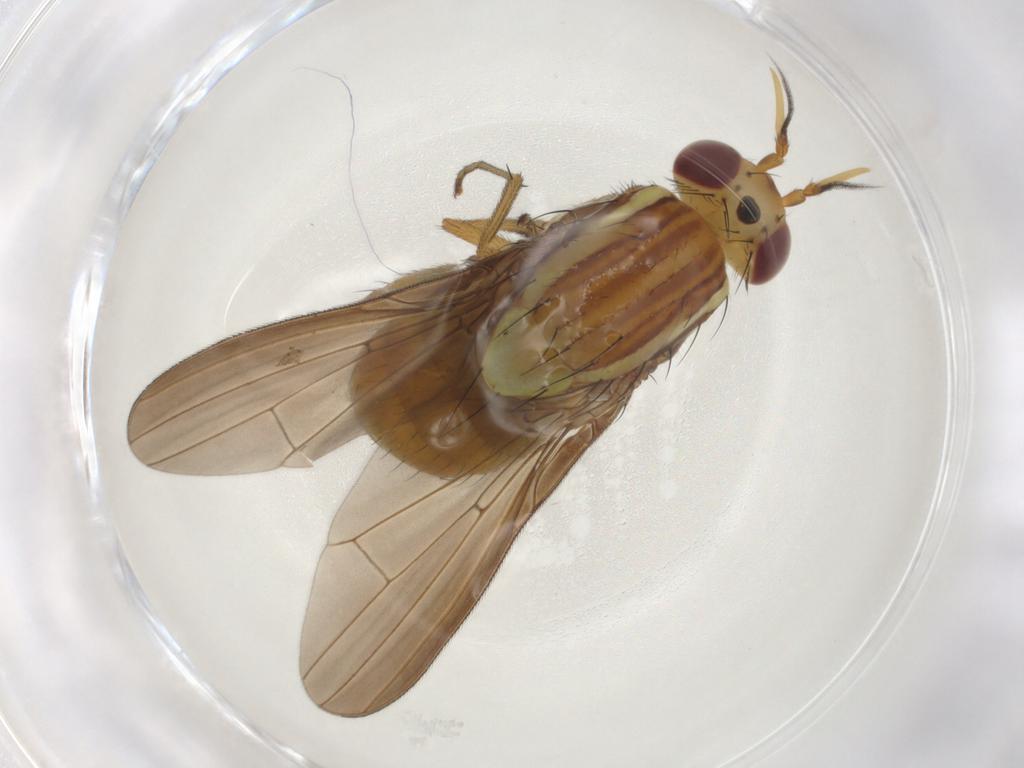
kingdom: Animalia
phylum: Arthropoda
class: Insecta
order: Diptera
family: Lauxaniidae
